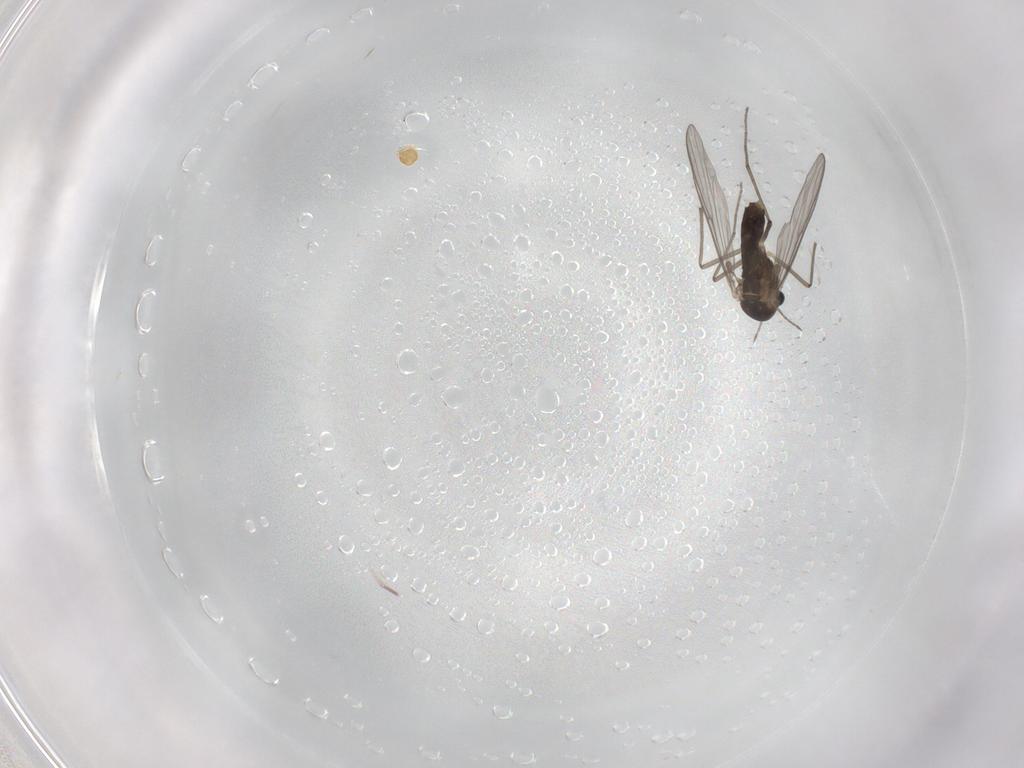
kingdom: Animalia
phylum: Arthropoda
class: Insecta
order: Diptera
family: Chironomidae
